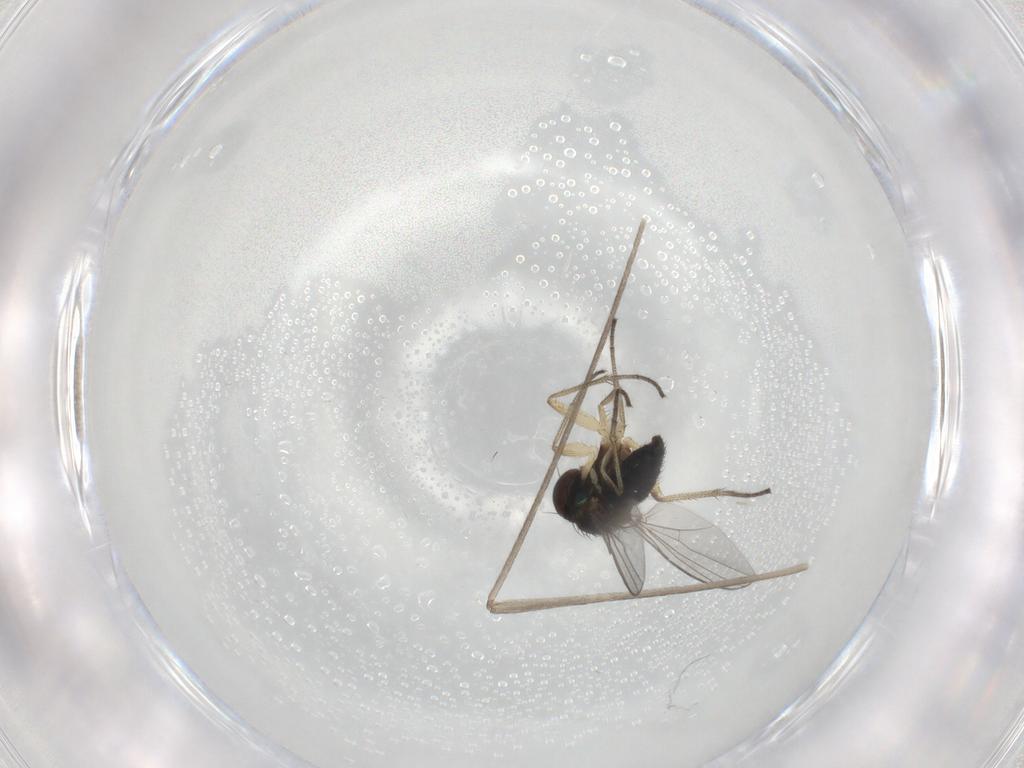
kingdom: Animalia
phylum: Arthropoda
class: Insecta
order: Diptera
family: Limoniidae
